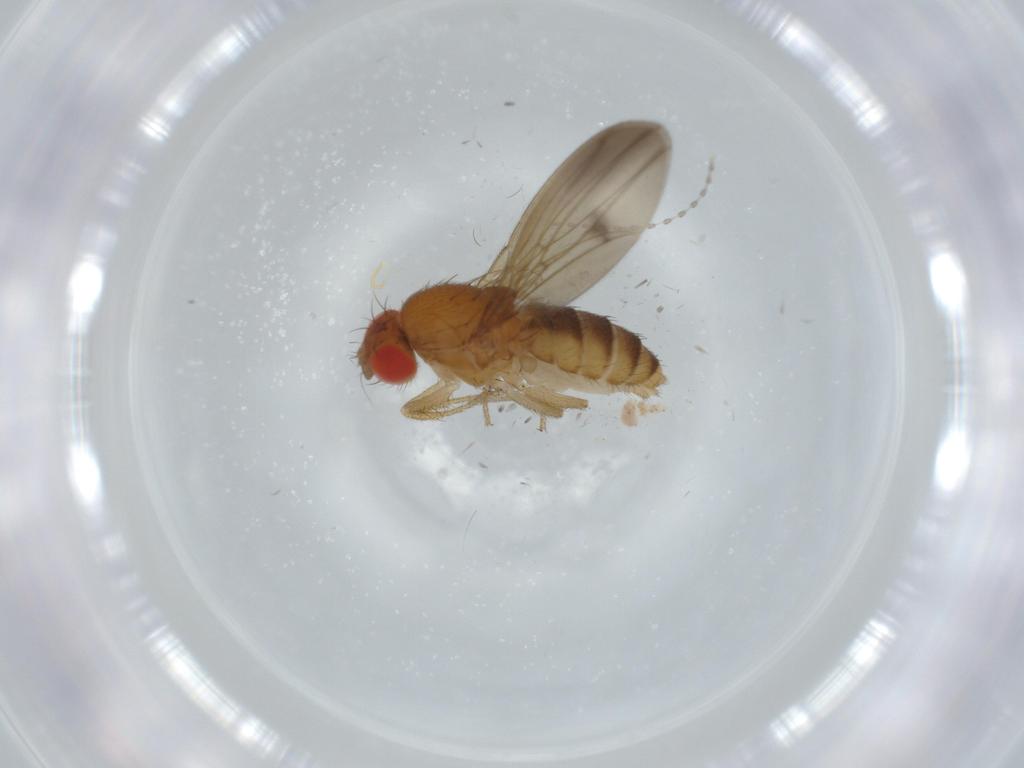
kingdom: Animalia
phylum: Arthropoda
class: Insecta
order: Diptera
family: Drosophilidae
